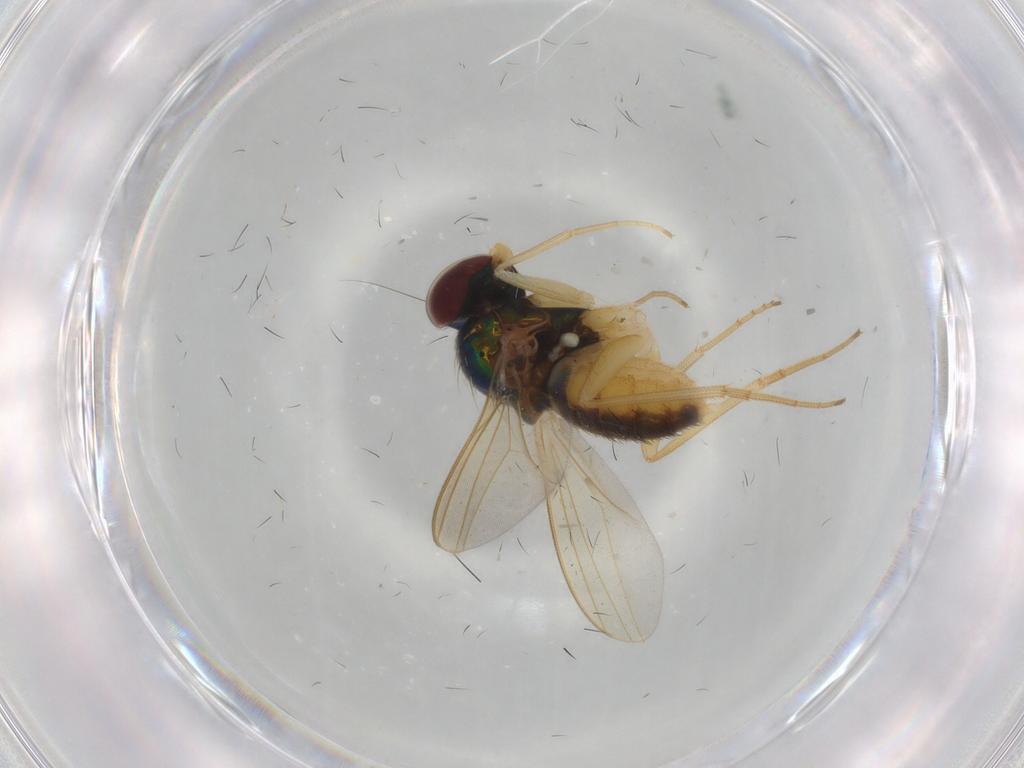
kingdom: Animalia
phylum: Arthropoda
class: Insecta
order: Diptera
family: Dolichopodidae
